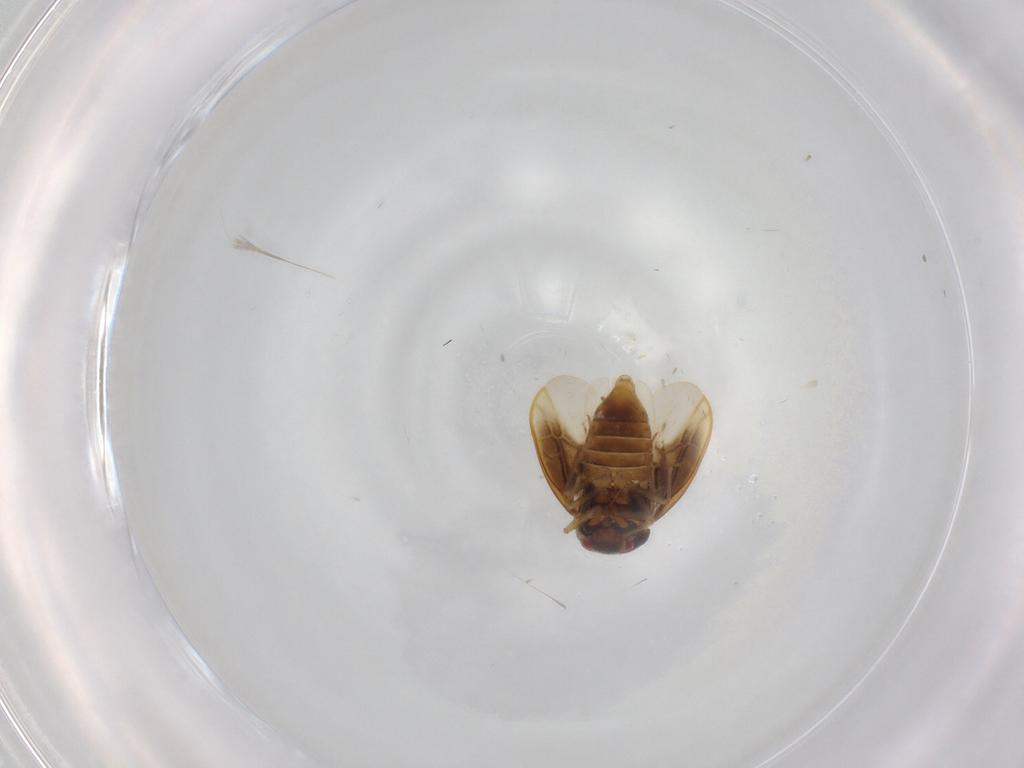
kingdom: Animalia
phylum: Arthropoda
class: Insecta
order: Hemiptera
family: Schizopteridae
